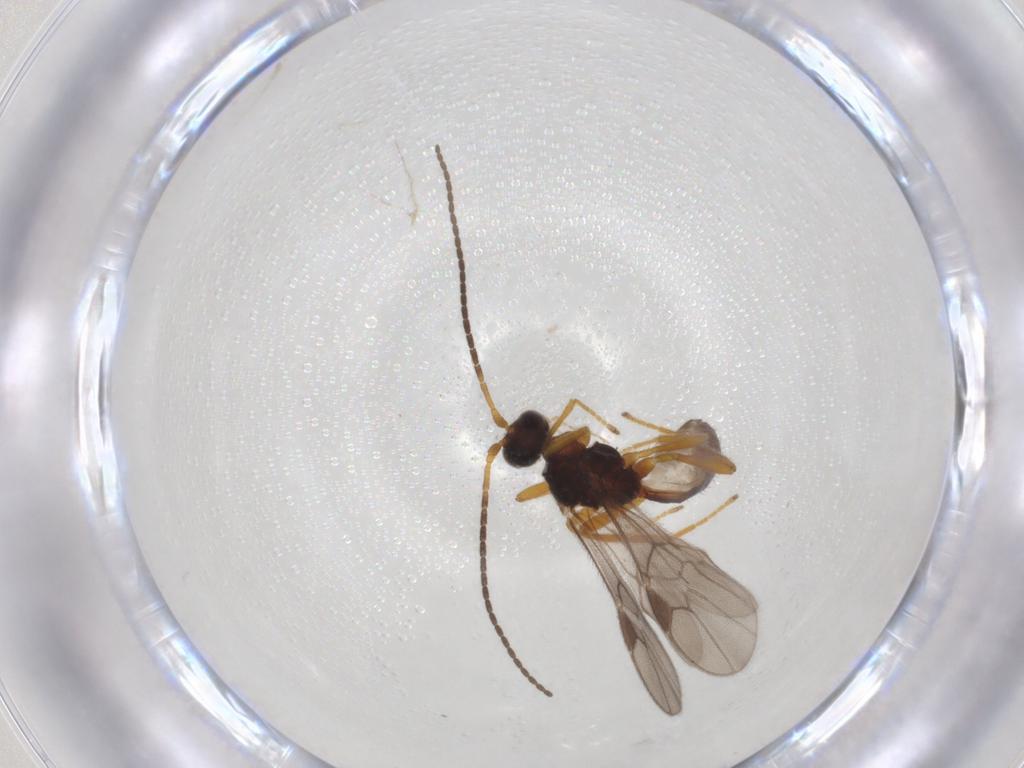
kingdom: Animalia
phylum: Arthropoda
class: Insecta
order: Hymenoptera
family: Braconidae
